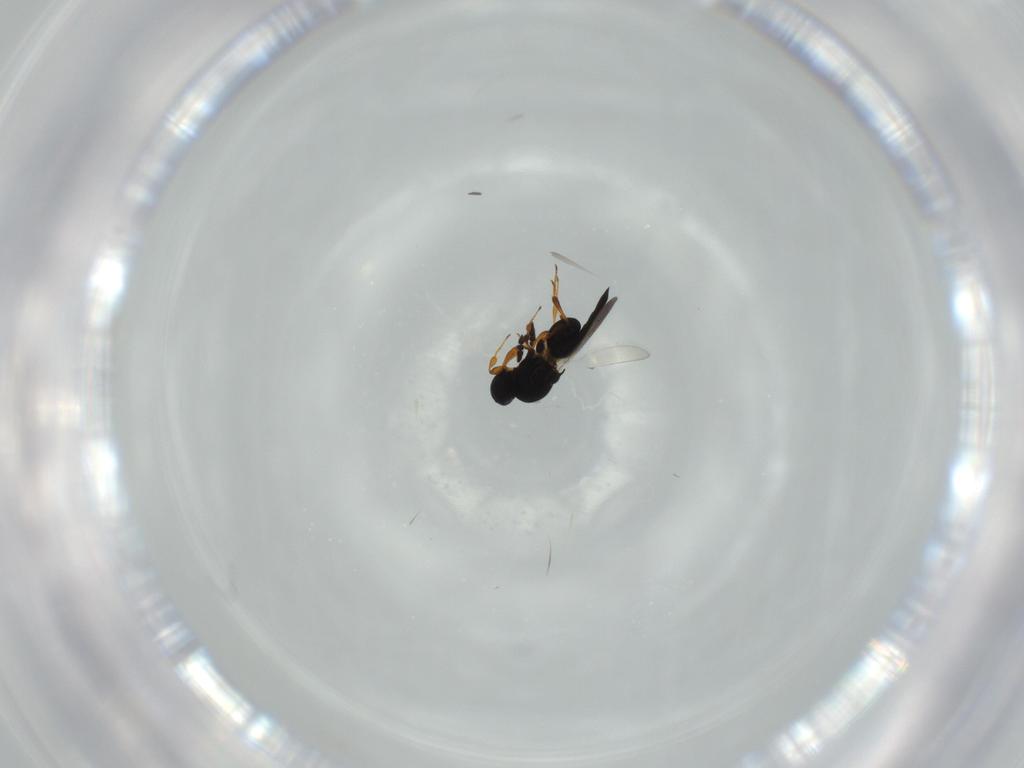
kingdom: Animalia
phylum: Arthropoda
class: Insecta
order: Hymenoptera
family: Platygastridae
